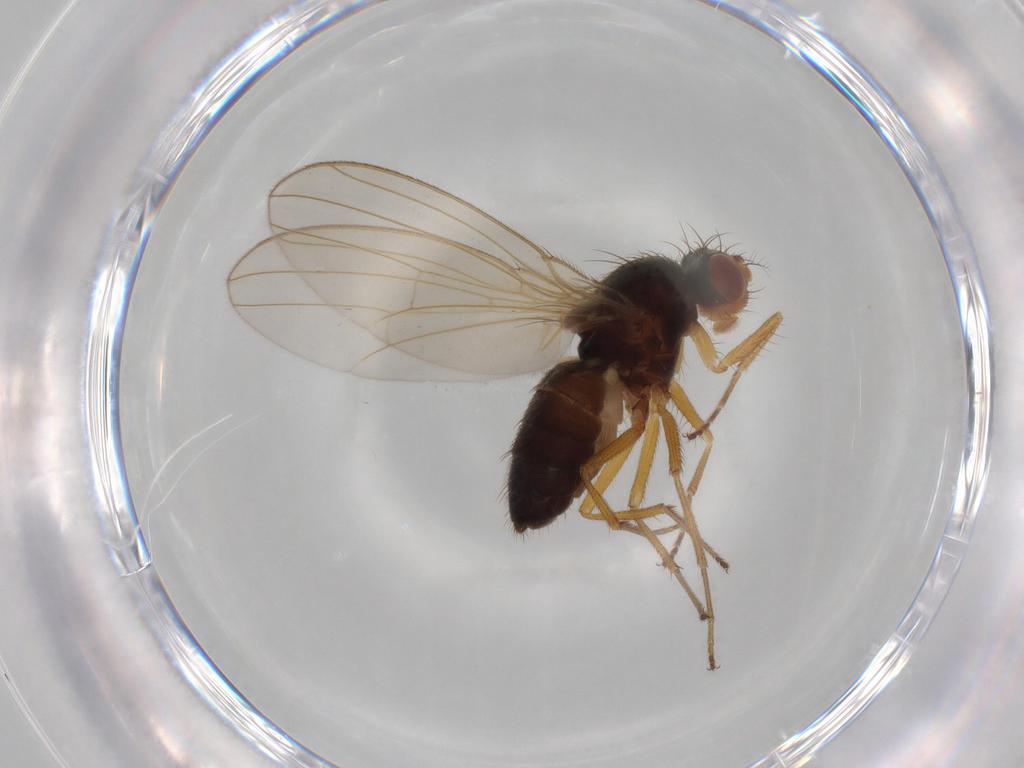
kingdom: Animalia
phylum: Arthropoda
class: Insecta
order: Diptera
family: Drosophilidae
